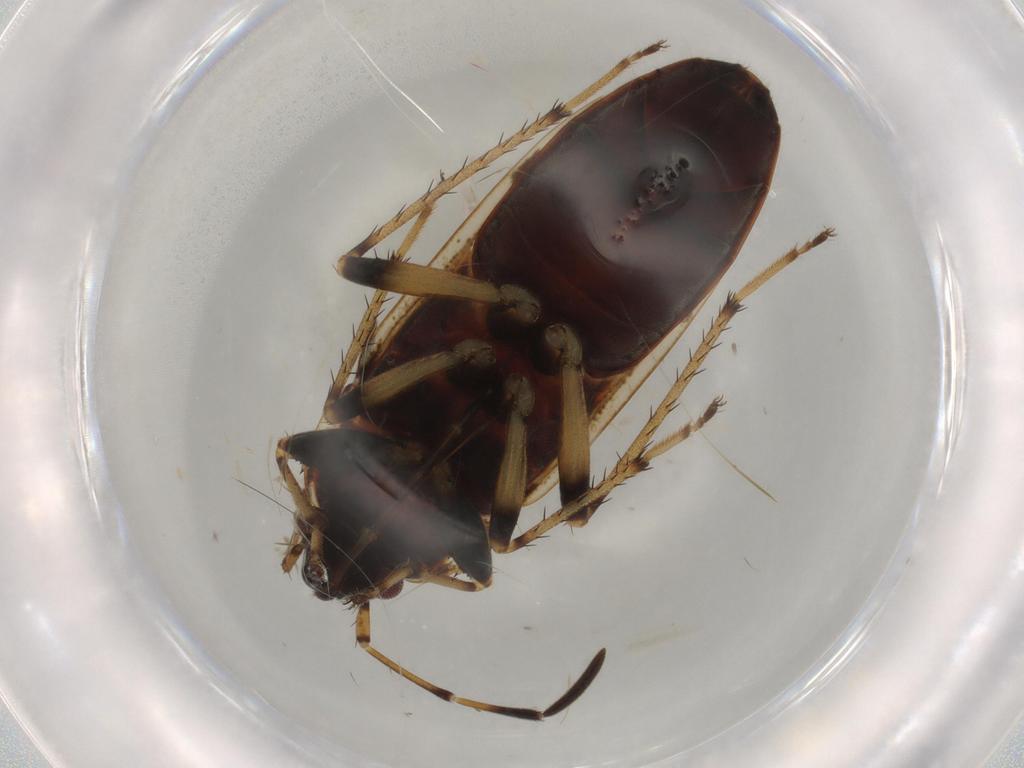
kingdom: Animalia
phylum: Arthropoda
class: Insecta
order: Hemiptera
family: Rhyparochromidae
